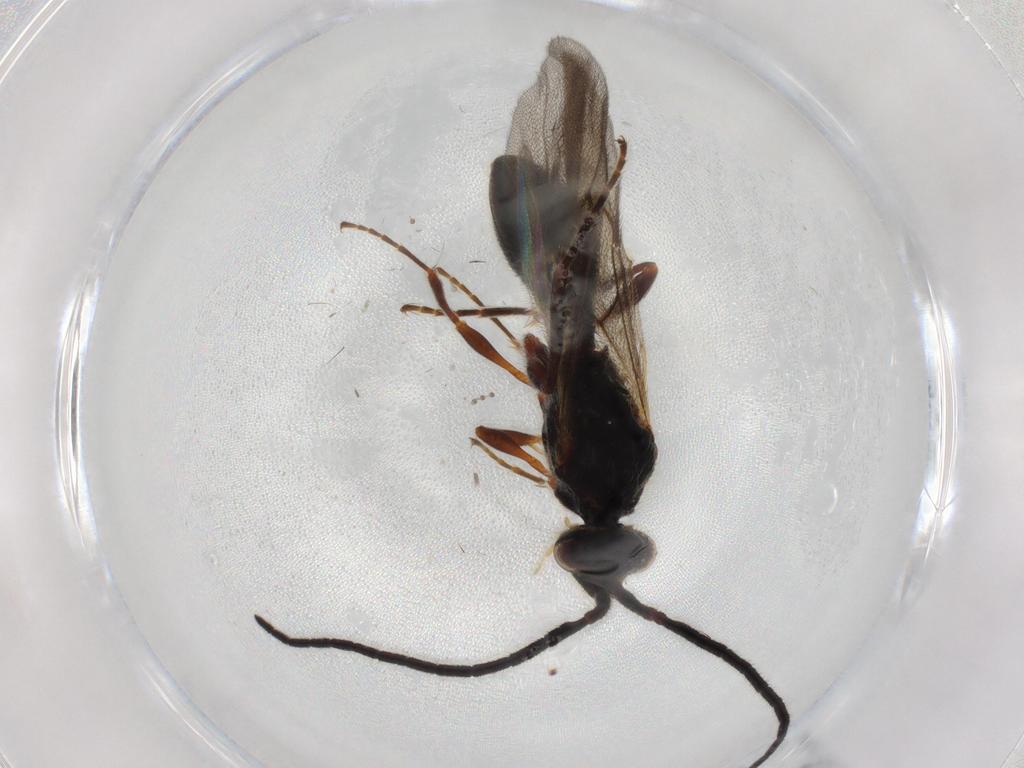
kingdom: Animalia
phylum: Arthropoda
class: Insecta
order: Hymenoptera
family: Diapriidae
